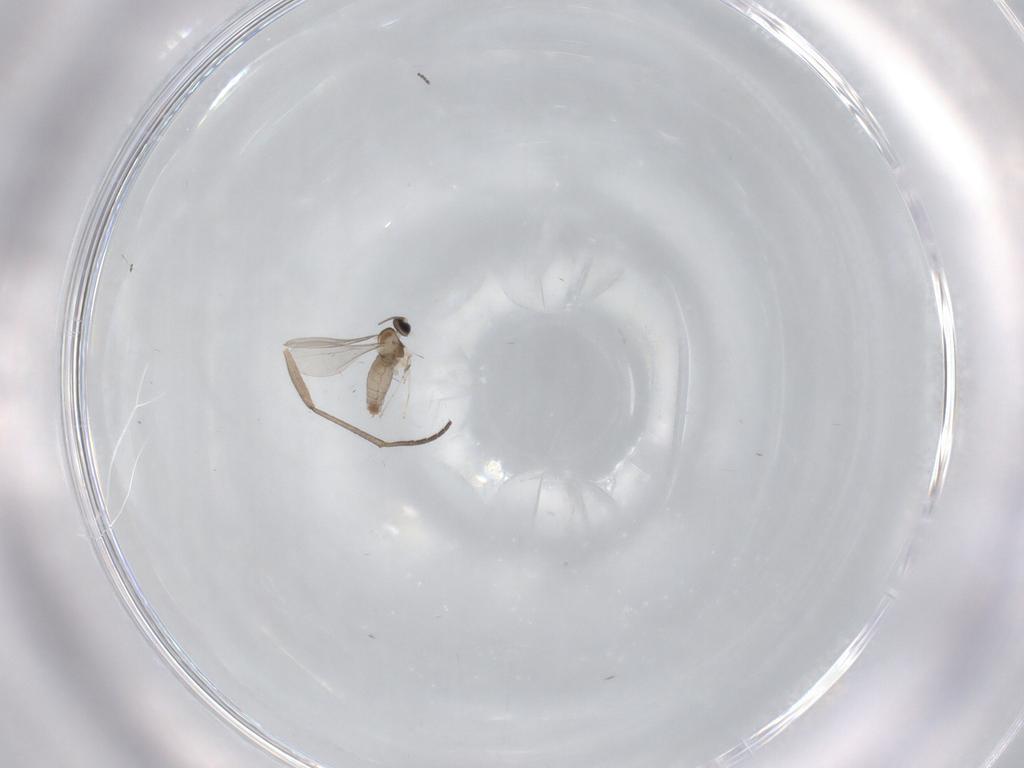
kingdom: Animalia
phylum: Arthropoda
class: Insecta
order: Diptera
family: Sciaridae
